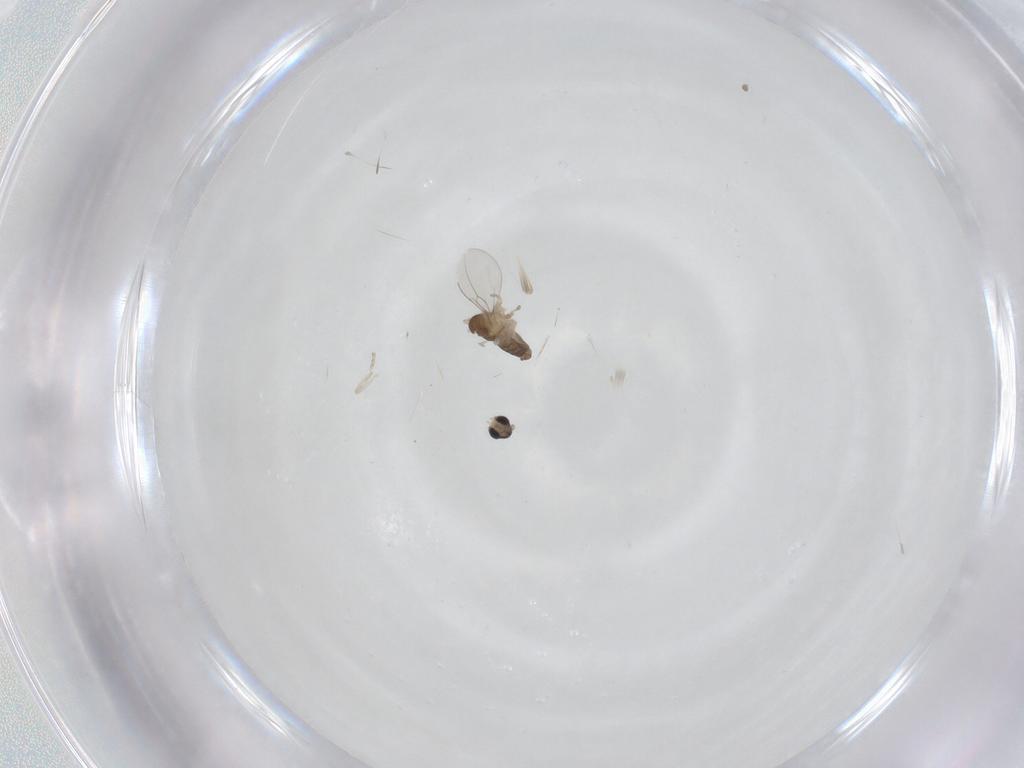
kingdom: Animalia
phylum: Arthropoda
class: Insecta
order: Diptera
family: Cecidomyiidae
